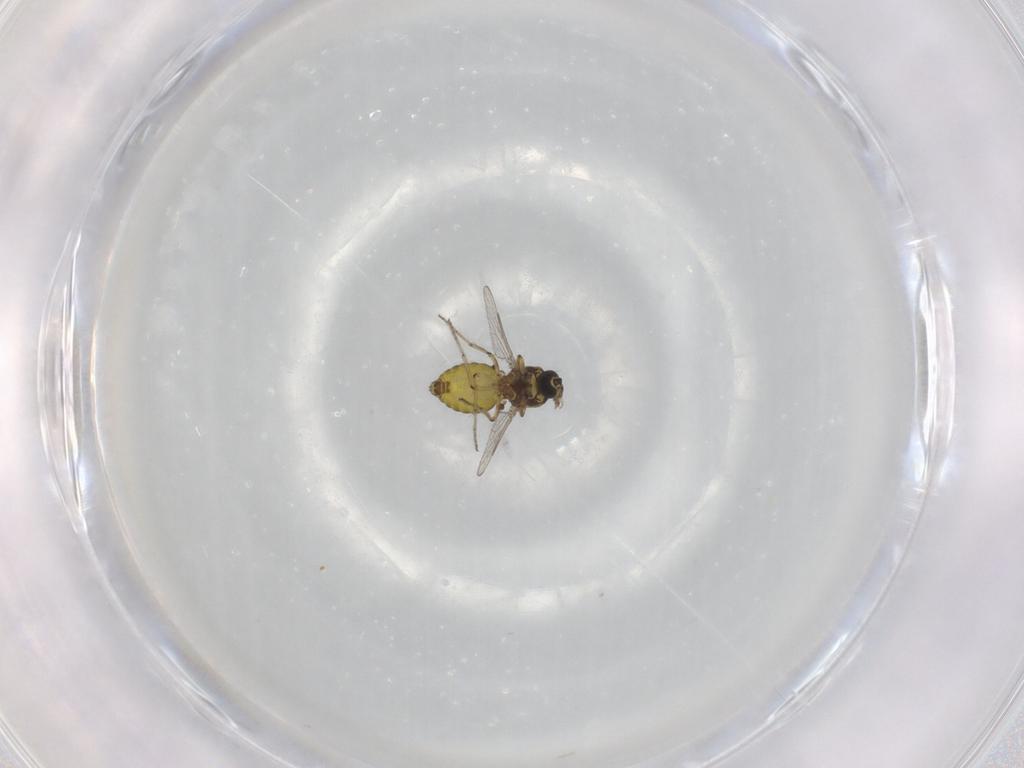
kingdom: Animalia
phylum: Arthropoda
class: Insecta
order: Diptera
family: Ceratopogonidae
